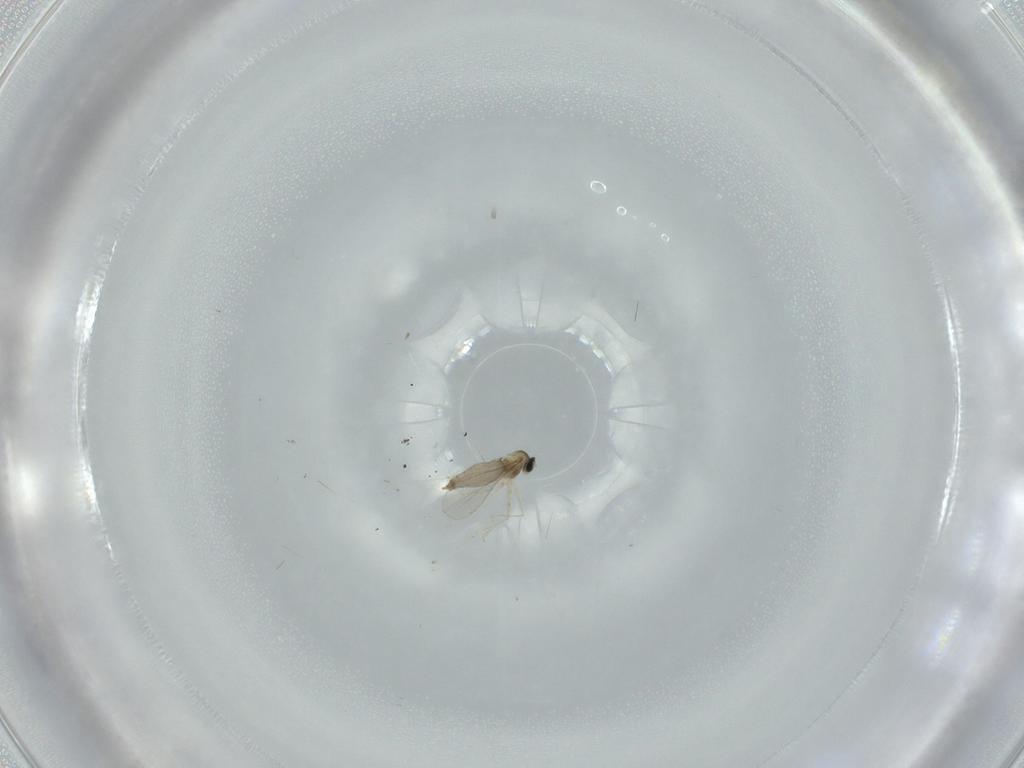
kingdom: Animalia
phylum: Arthropoda
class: Insecta
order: Diptera
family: Cecidomyiidae
